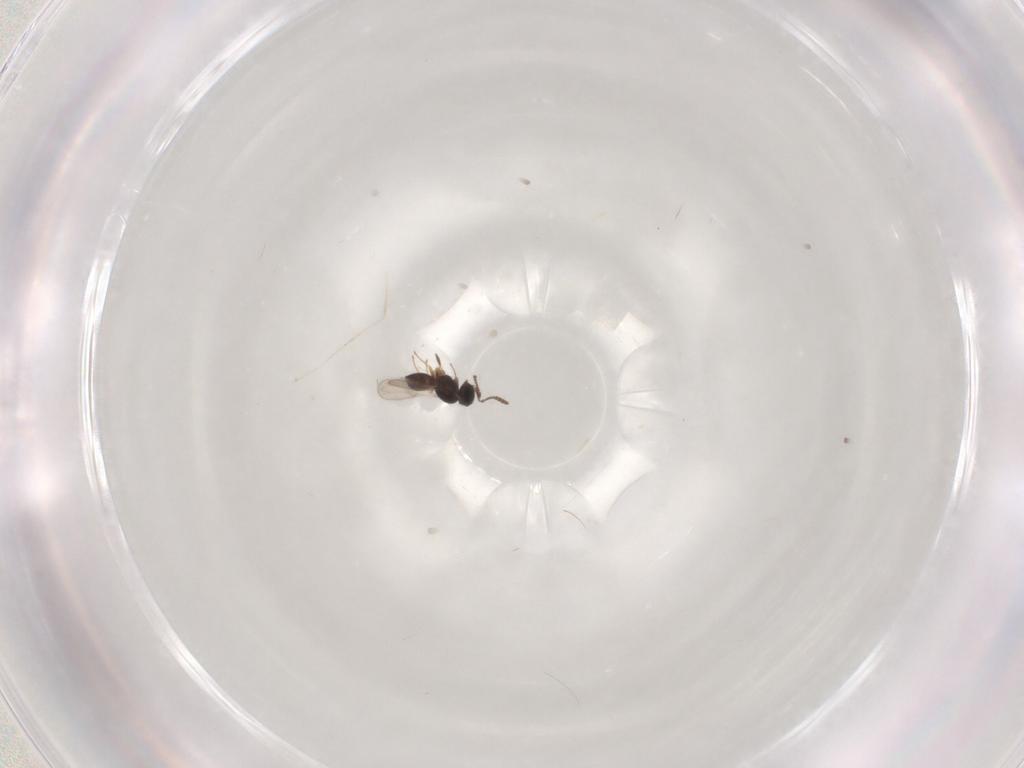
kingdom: Animalia
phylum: Arthropoda
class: Insecta
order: Hymenoptera
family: Scelionidae
